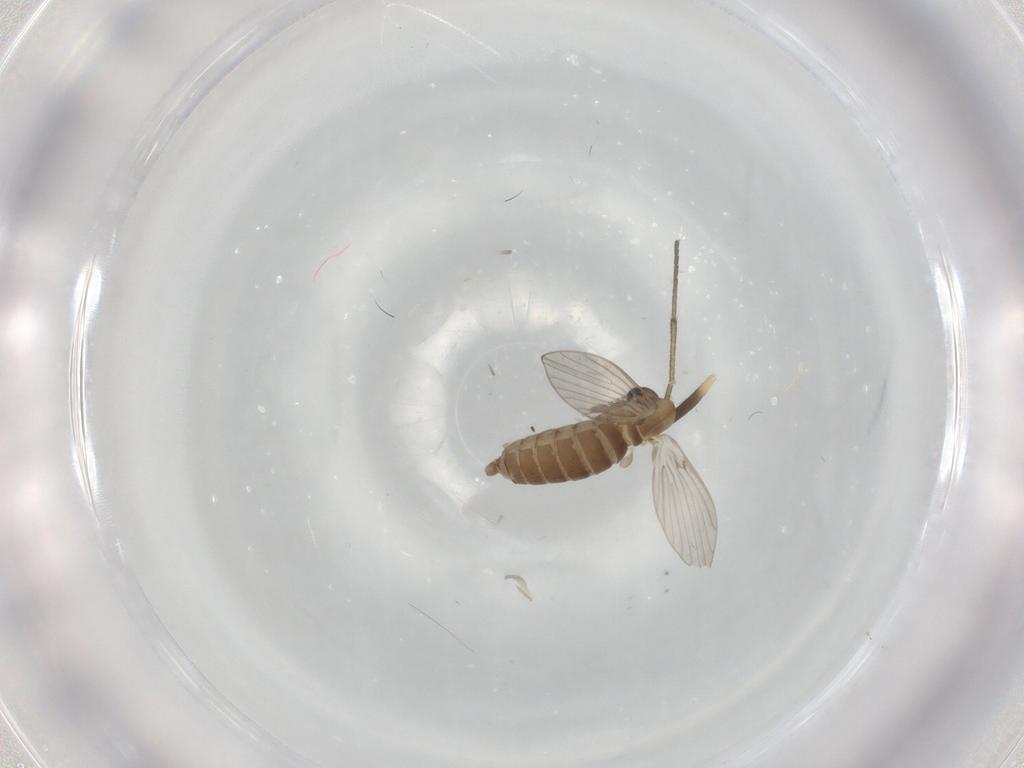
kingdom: Animalia
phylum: Arthropoda
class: Insecta
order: Diptera
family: Sciaridae
